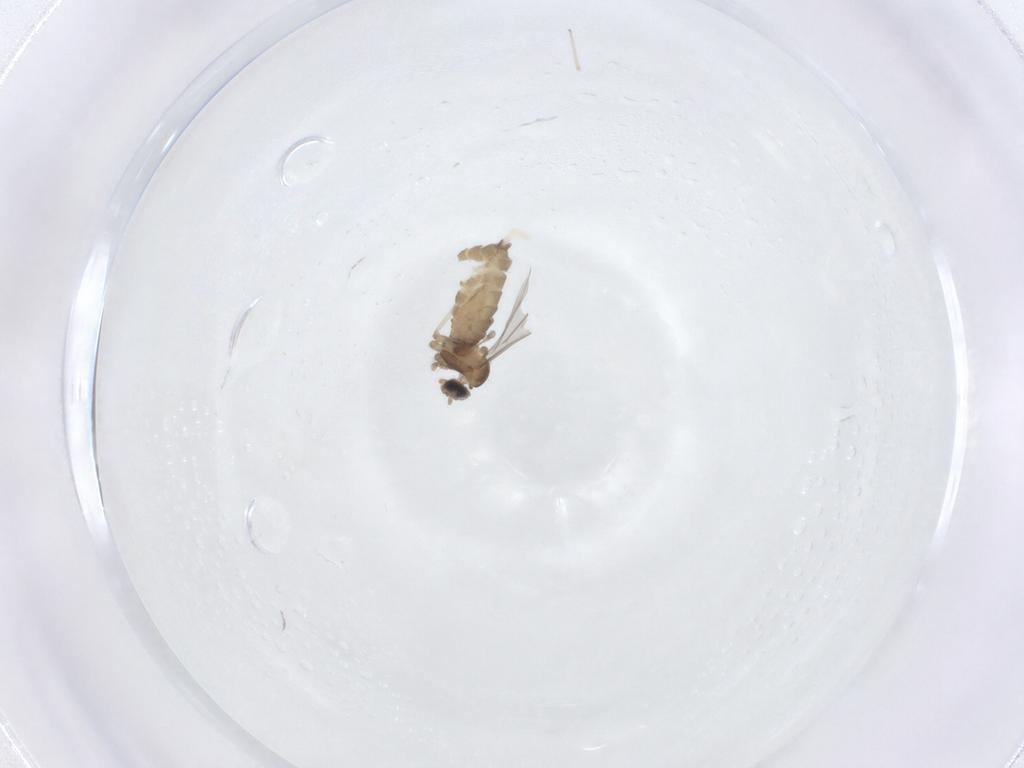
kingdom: Animalia
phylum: Arthropoda
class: Insecta
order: Diptera
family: Cecidomyiidae
